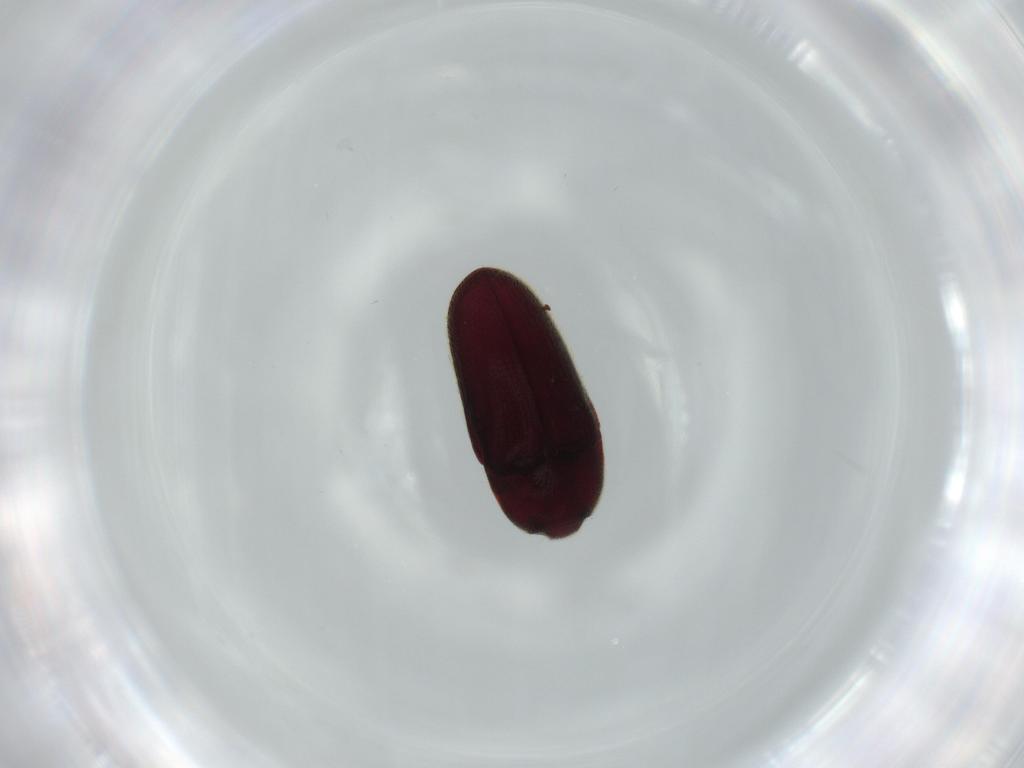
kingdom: Animalia
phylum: Arthropoda
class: Insecta
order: Coleoptera
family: Throscidae
